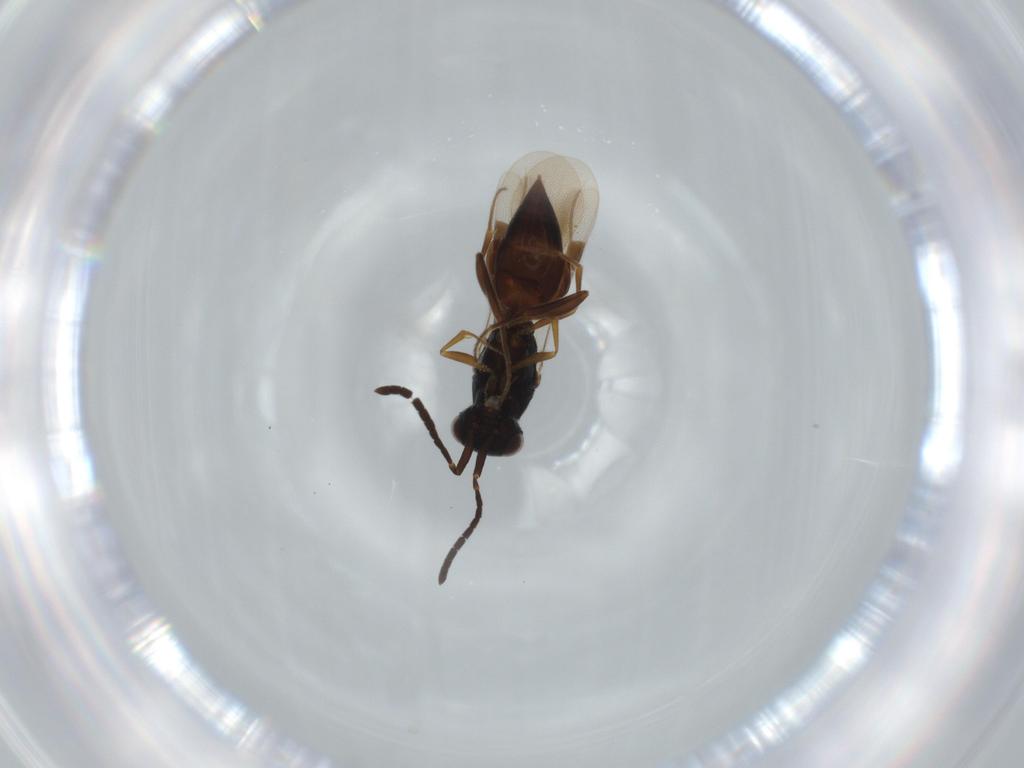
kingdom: Animalia
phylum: Arthropoda
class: Insecta
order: Hymenoptera
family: Megaspilidae
